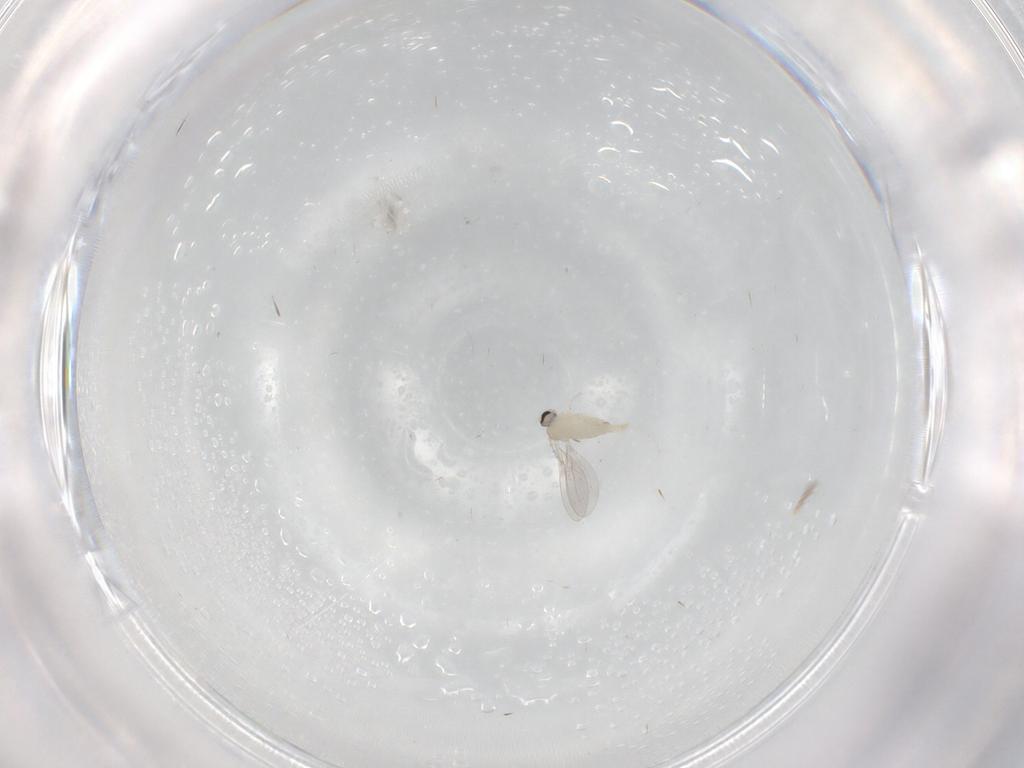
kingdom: Animalia
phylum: Arthropoda
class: Insecta
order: Diptera
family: Cecidomyiidae
